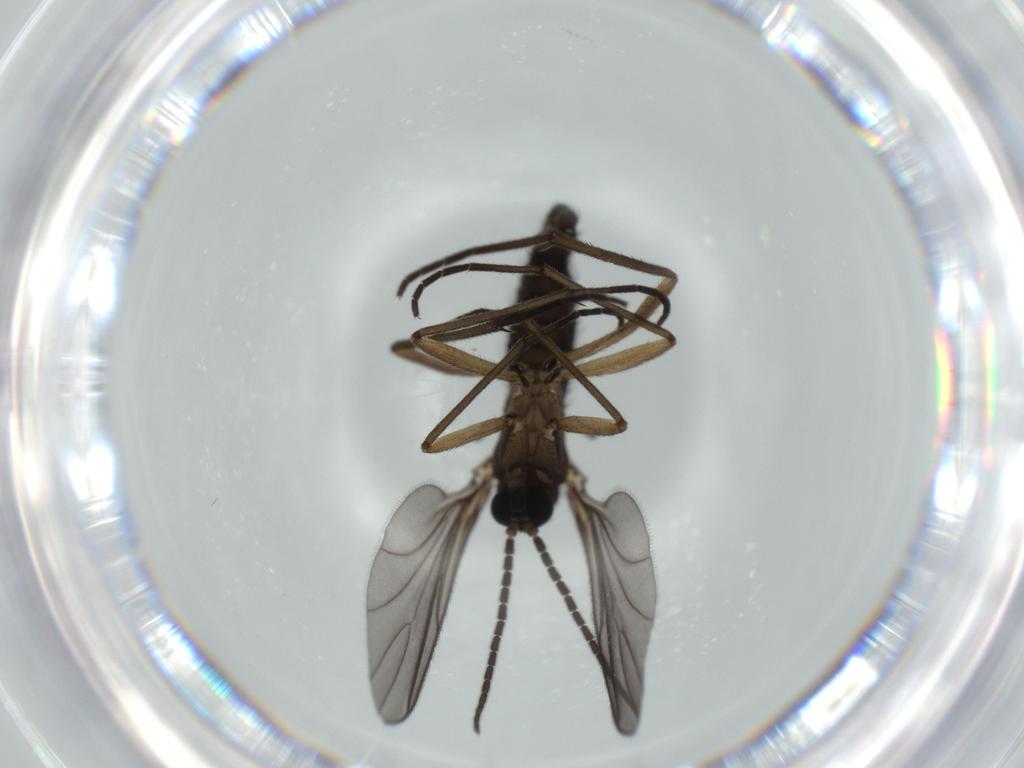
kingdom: Animalia
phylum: Arthropoda
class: Insecta
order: Diptera
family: Sciaridae
